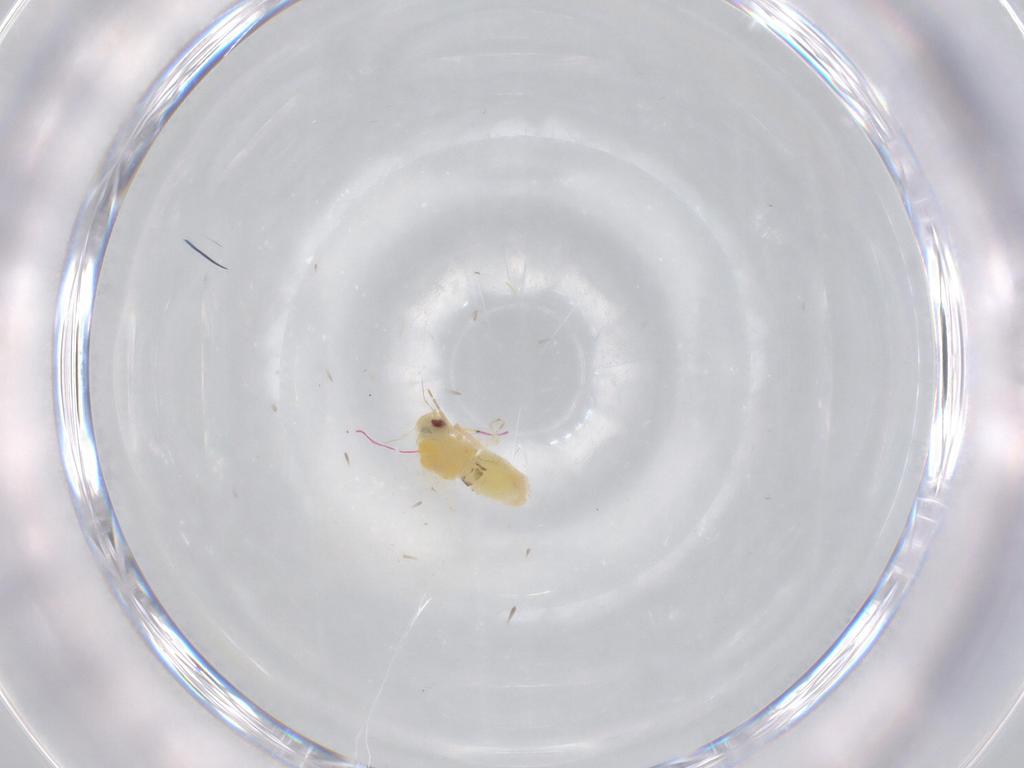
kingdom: Animalia
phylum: Arthropoda
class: Insecta
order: Hemiptera
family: Aleyrodidae
